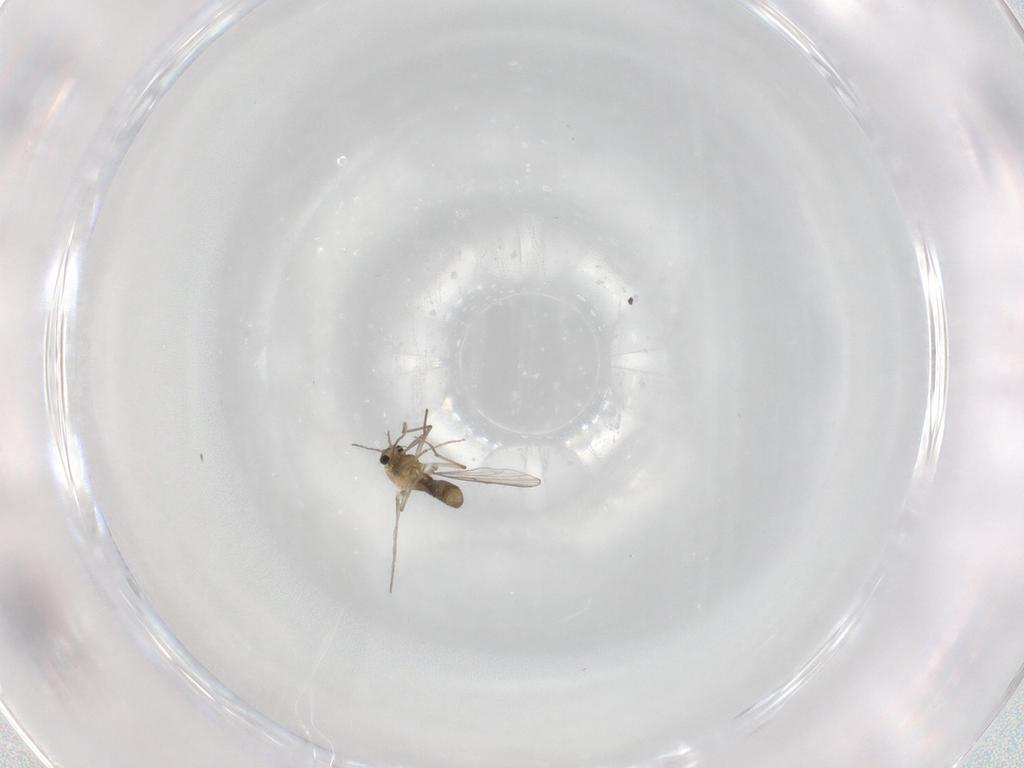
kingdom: Animalia
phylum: Arthropoda
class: Insecta
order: Diptera
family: Chironomidae
